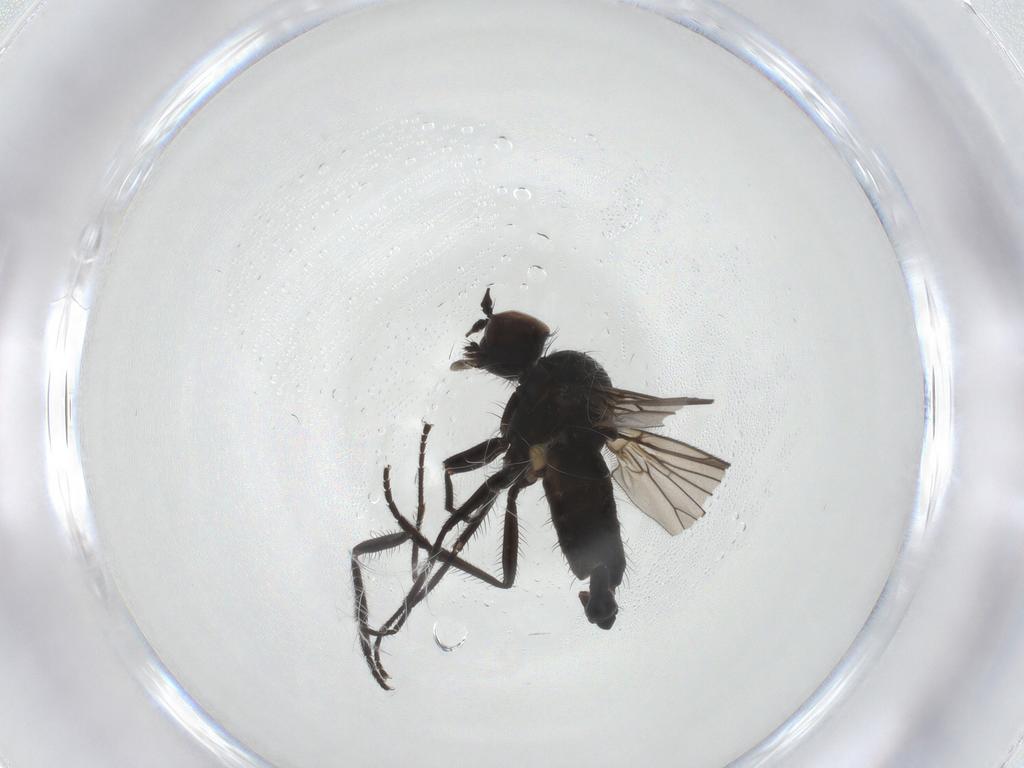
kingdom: Animalia
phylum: Arthropoda
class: Insecta
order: Diptera
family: Dolichopodidae
